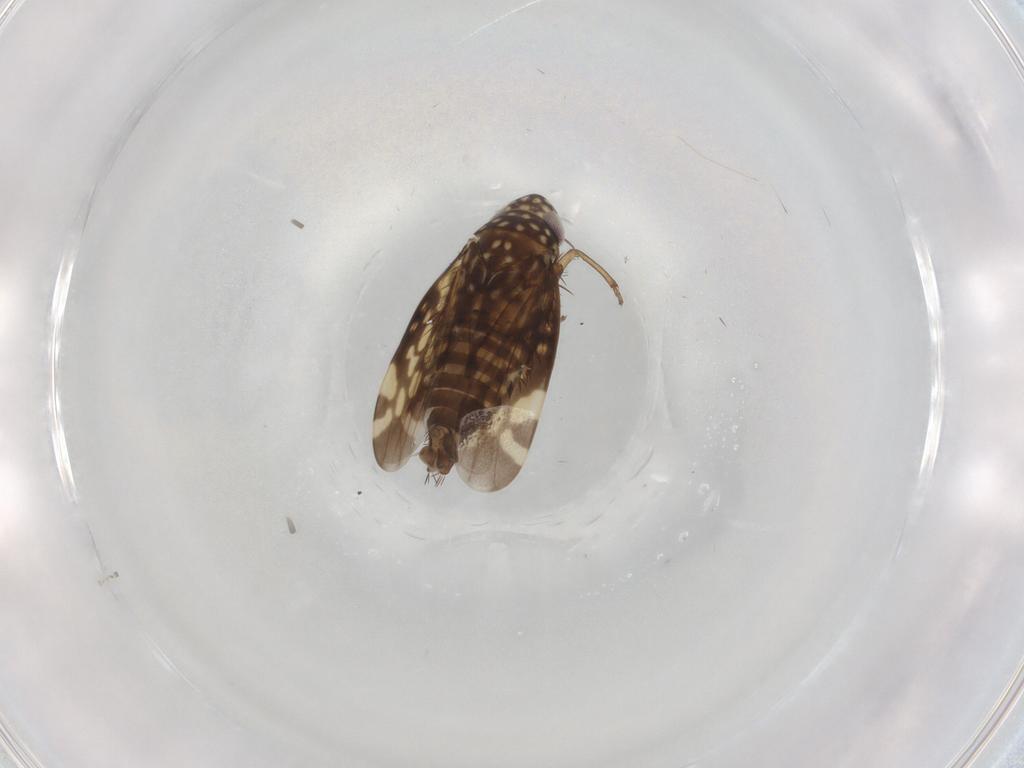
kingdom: Animalia
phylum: Arthropoda
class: Insecta
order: Hemiptera
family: Cicadellidae
